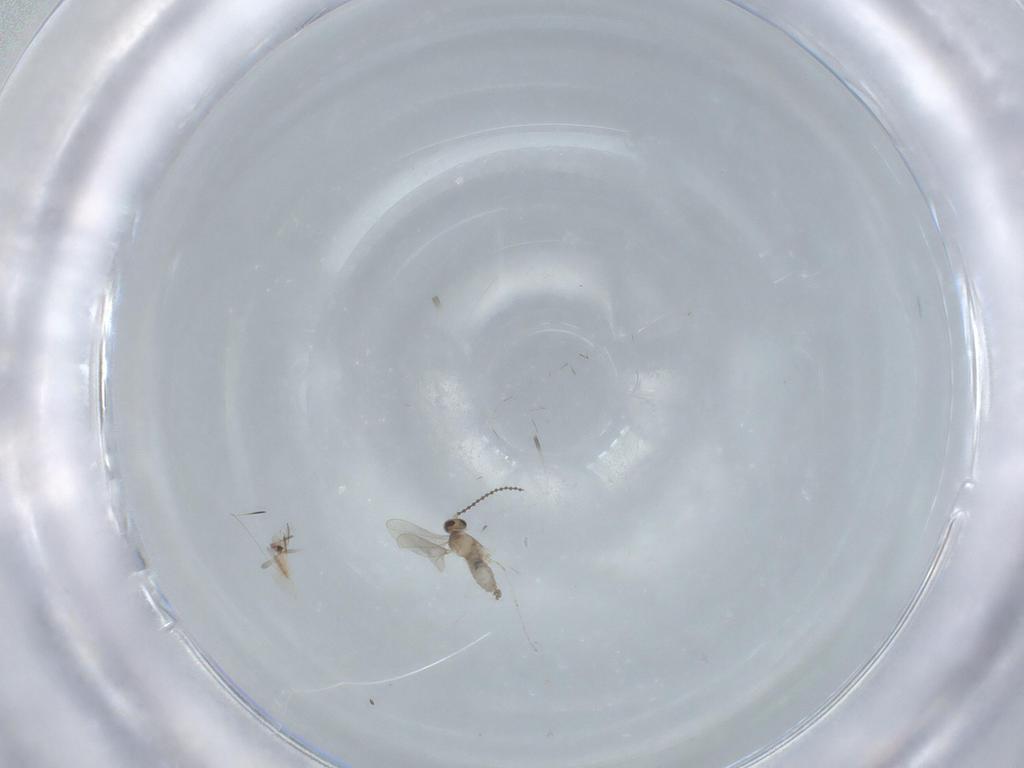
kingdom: Animalia
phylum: Arthropoda
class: Insecta
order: Diptera
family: Cecidomyiidae
